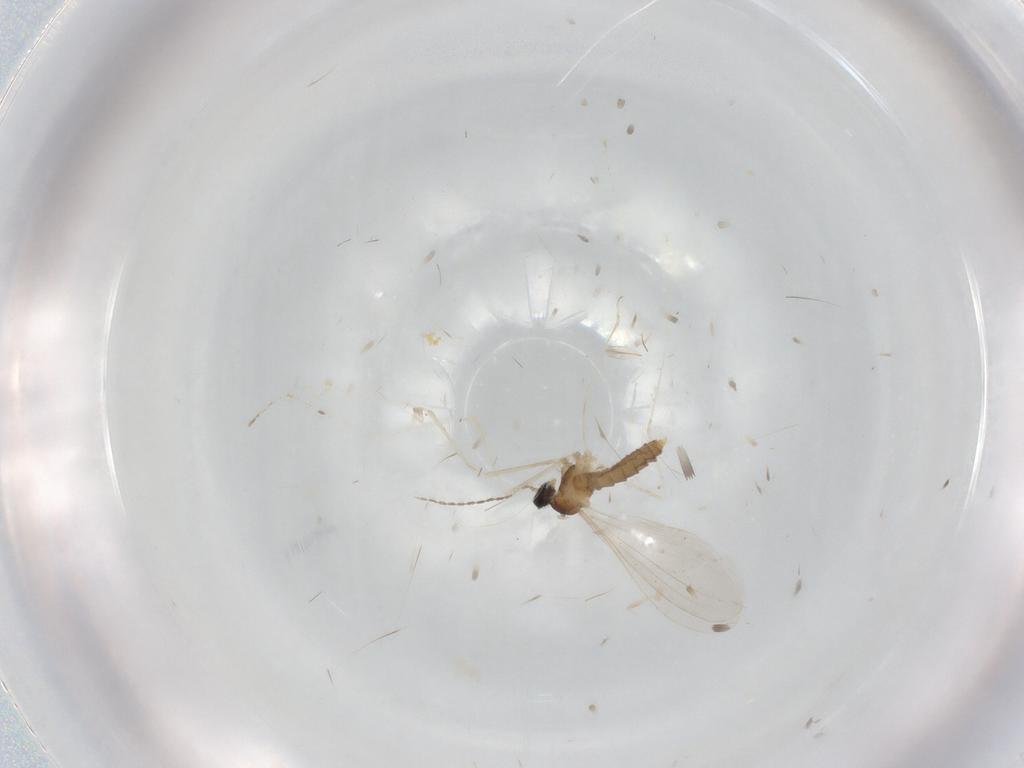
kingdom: Animalia
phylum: Arthropoda
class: Insecta
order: Diptera
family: Cecidomyiidae
